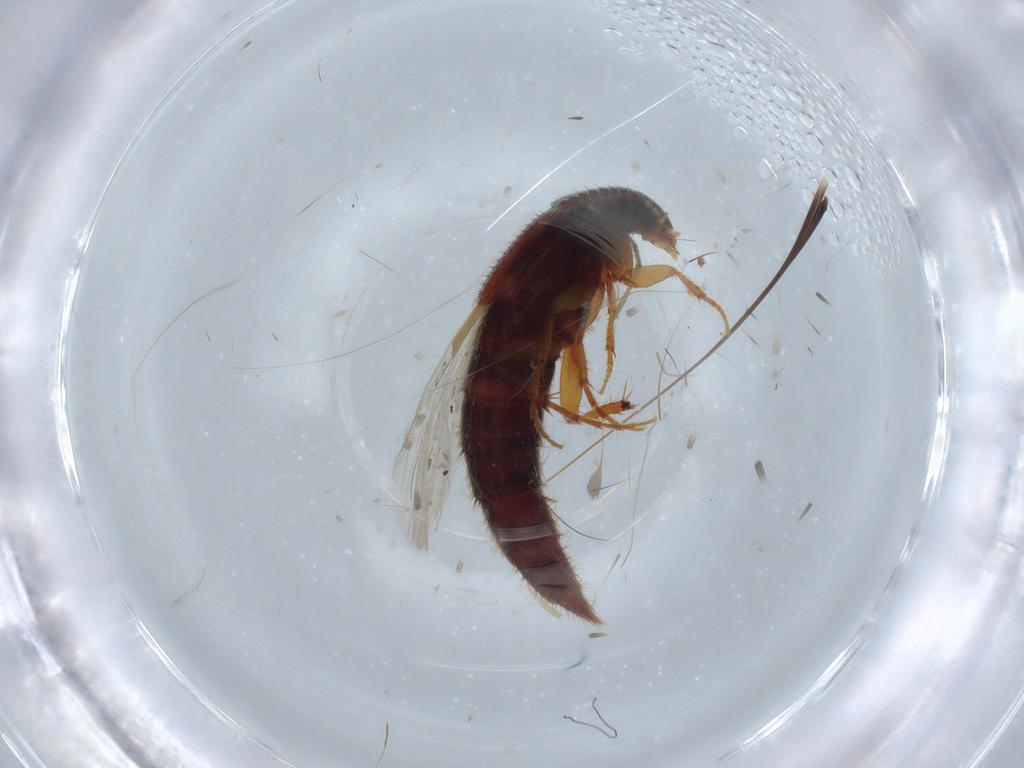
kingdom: Animalia
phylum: Arthropoda
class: Insecta
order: Coleoptera
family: Staphylinidae
